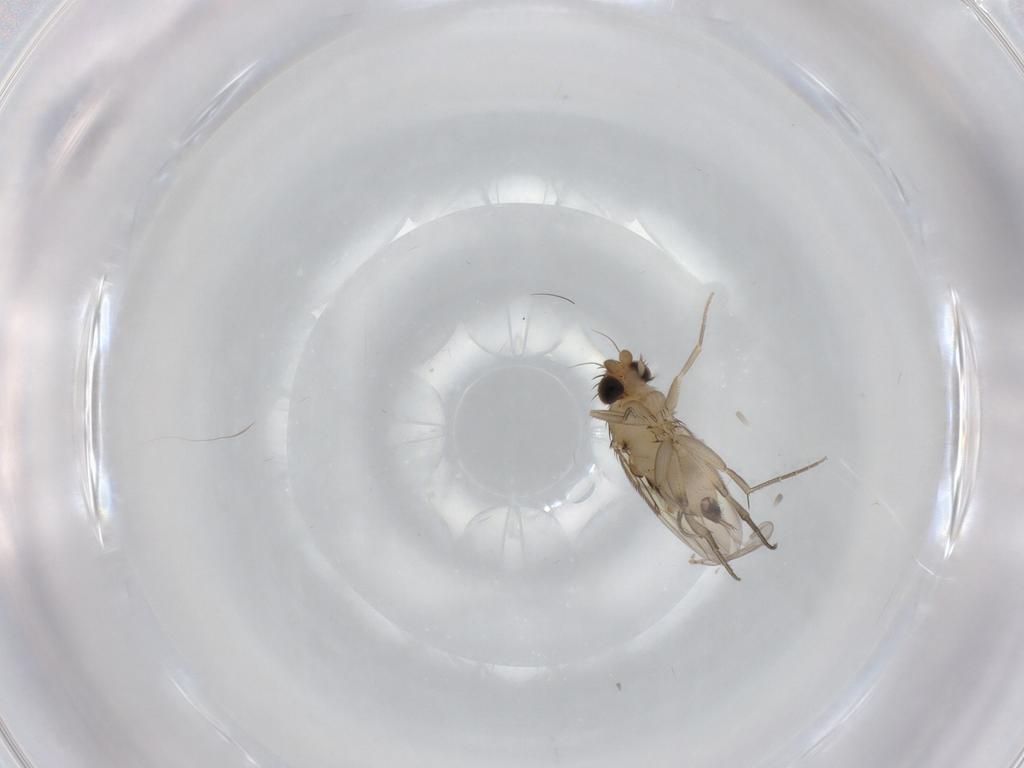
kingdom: Animalia
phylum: Arthropoda
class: Insecta
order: Diptera
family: Phoridae
